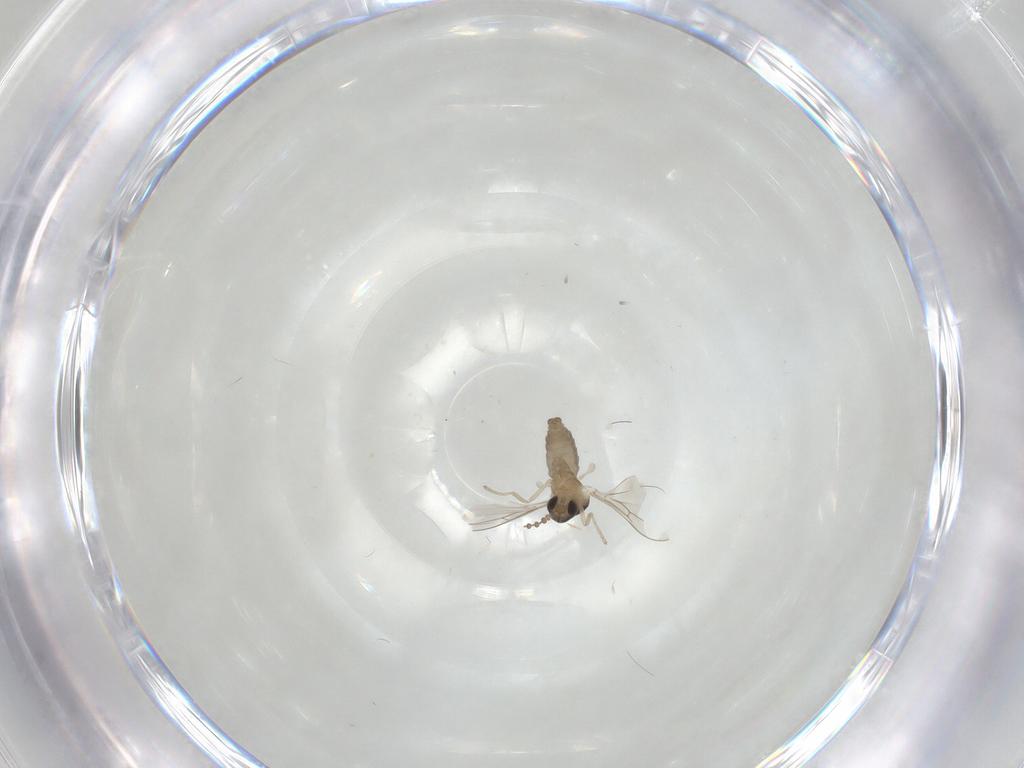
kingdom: Animalia
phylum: Arthropoda
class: Insecta
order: Diptera
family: Psychodidae
